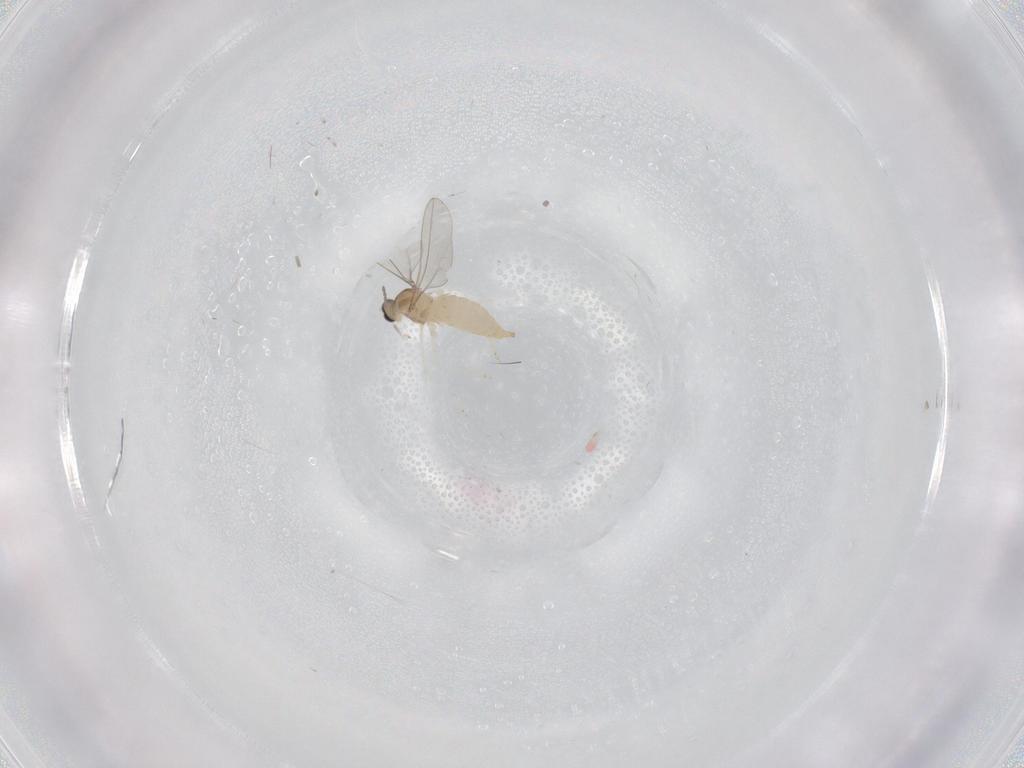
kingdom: Animalia
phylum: Arthropoda
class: Insecta
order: Diptera
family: Cecidomyiidae
